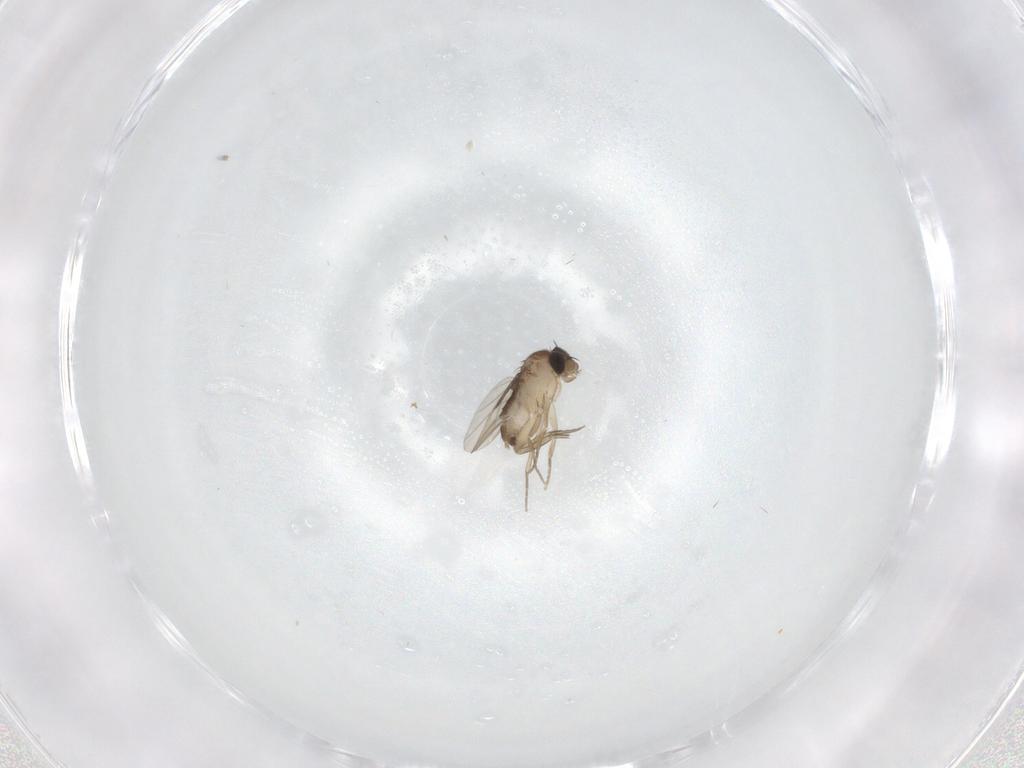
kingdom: Animalia
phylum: Arthropoda
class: Insecta
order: Diptera
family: Phoridae
